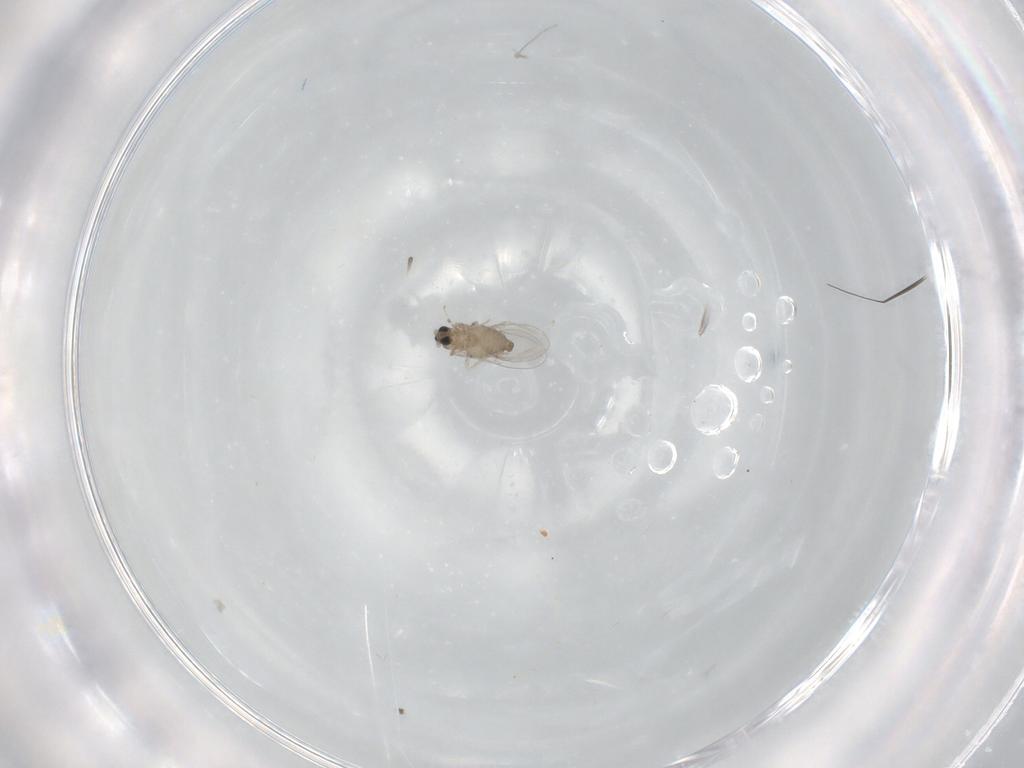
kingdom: Animalia
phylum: Arthropoda
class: Insecta
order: Diptera
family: Cecidomyiidae
